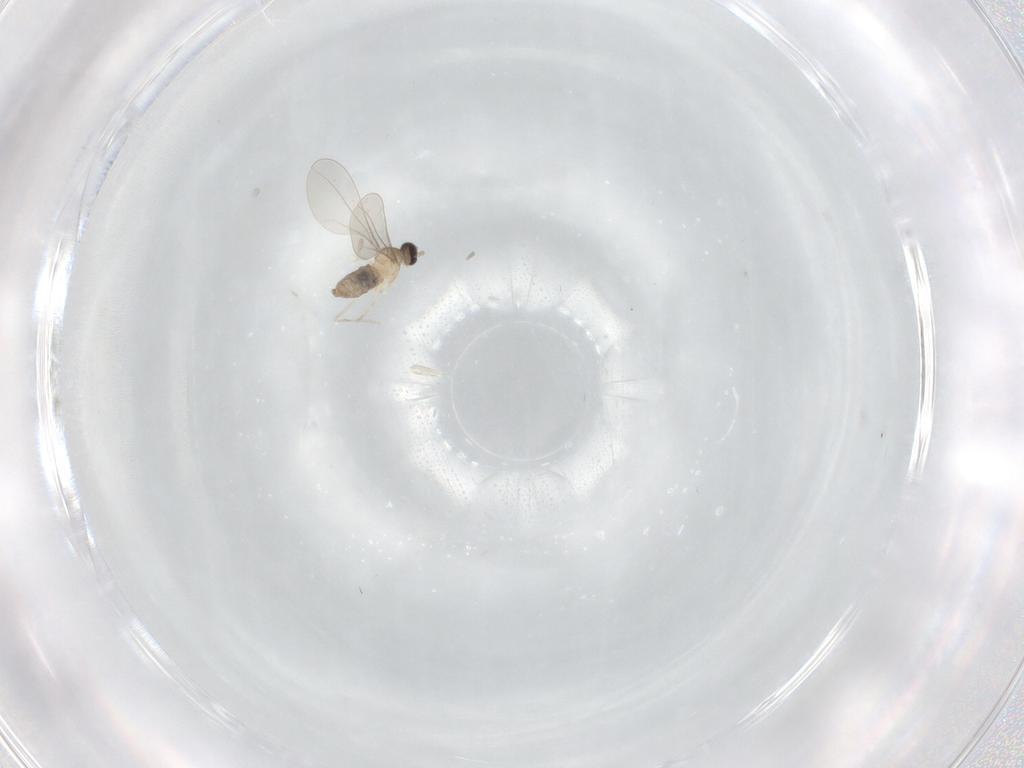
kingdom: Animalia
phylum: Arthropoda
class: Insecta
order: Diptera
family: Cecidomyiidae
